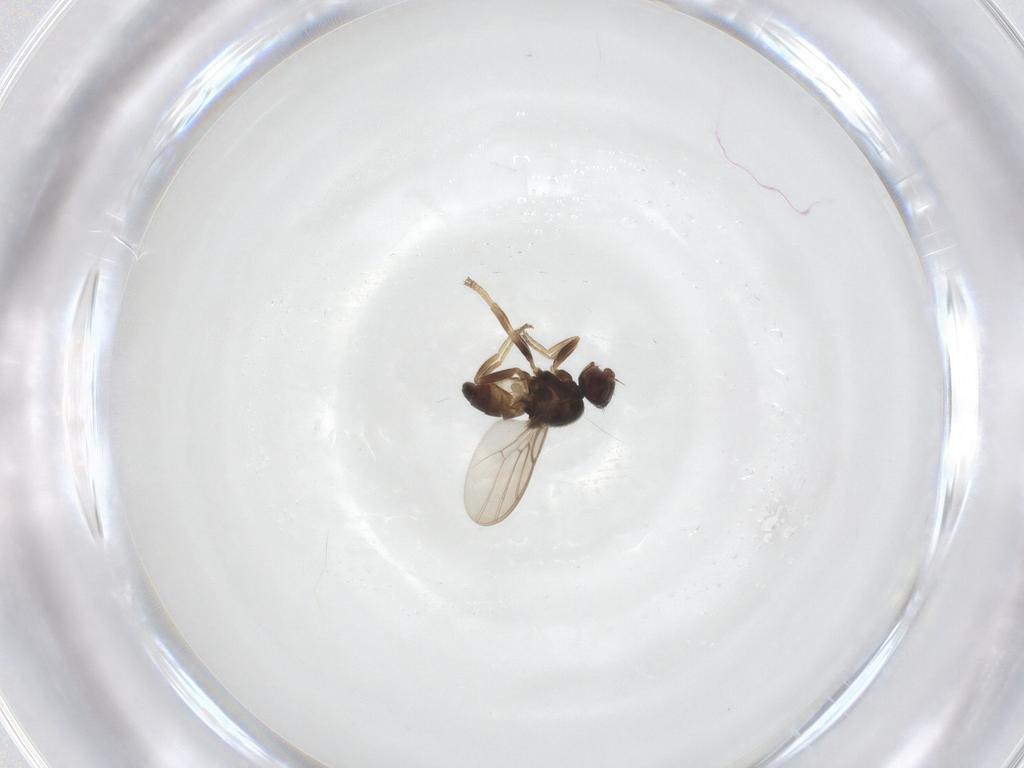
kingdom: Animalia
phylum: Arthropoda
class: Insecta
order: Diptera
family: Chloropidae
